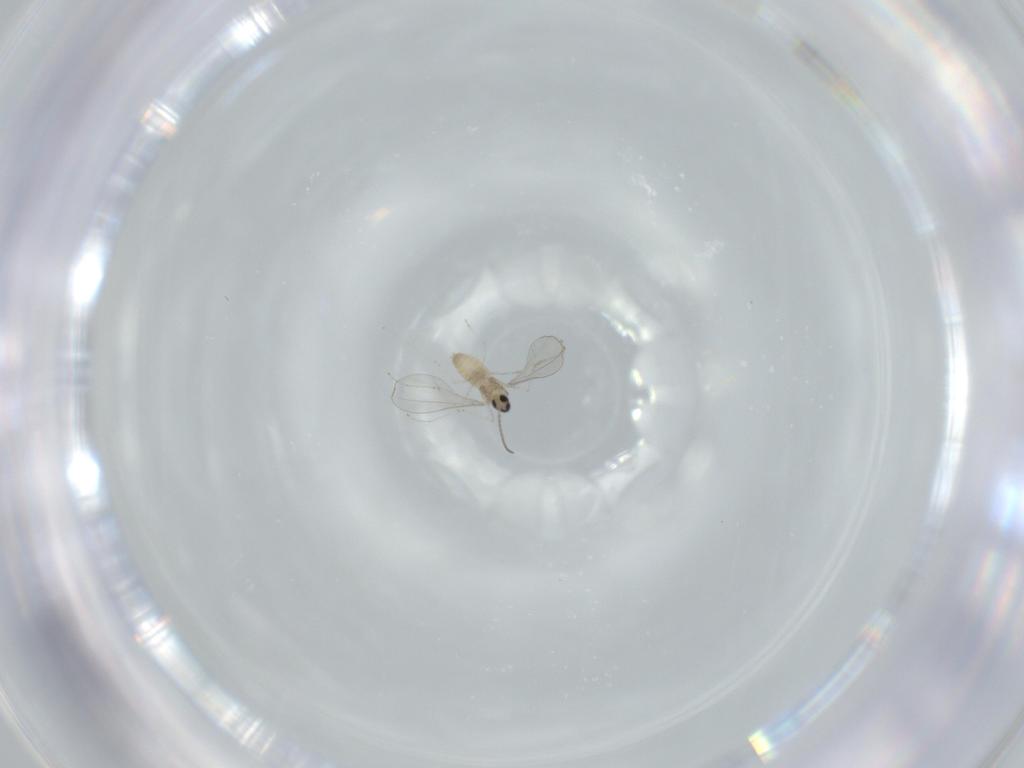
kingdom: Animalia
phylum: Arthropoda
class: Insecta
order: Diptera
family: Cecidomyiidae
